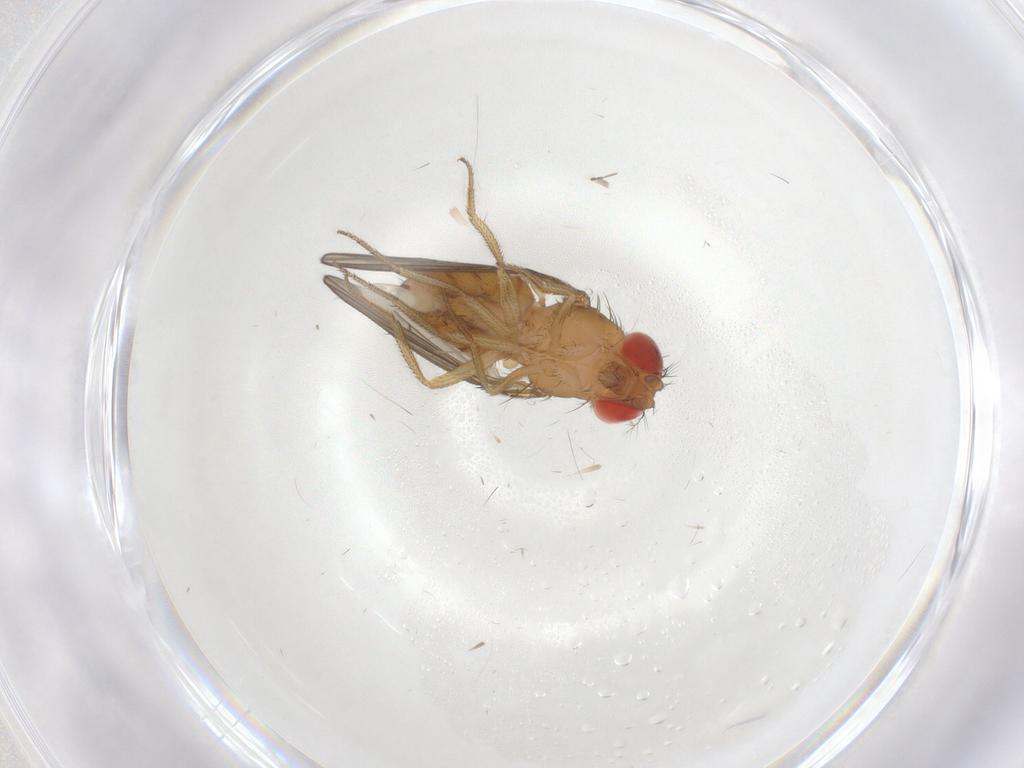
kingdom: Animalia
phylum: Arthropoda
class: Insecta
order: Diptera
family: Drosophilidae
